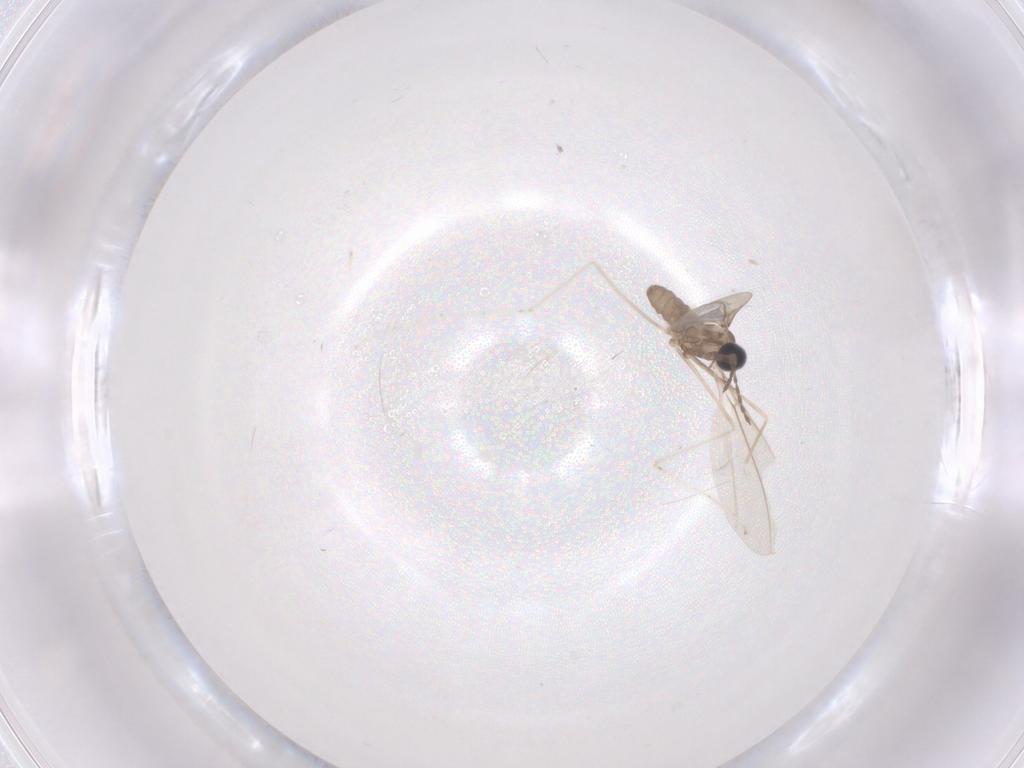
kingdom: Animalia
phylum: Arthropoda
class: Insecta
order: Diptera
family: Cecidomyiidae
